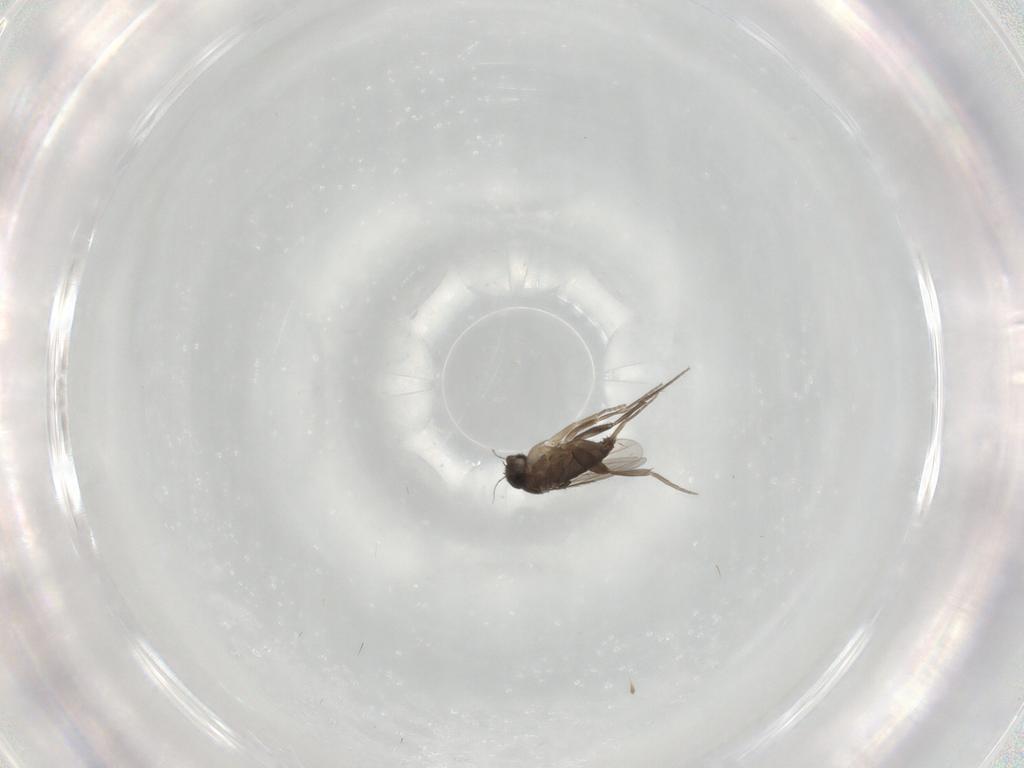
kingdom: Animalia
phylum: Arthropoda
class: Insecta
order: Diptera
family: Phoridae
